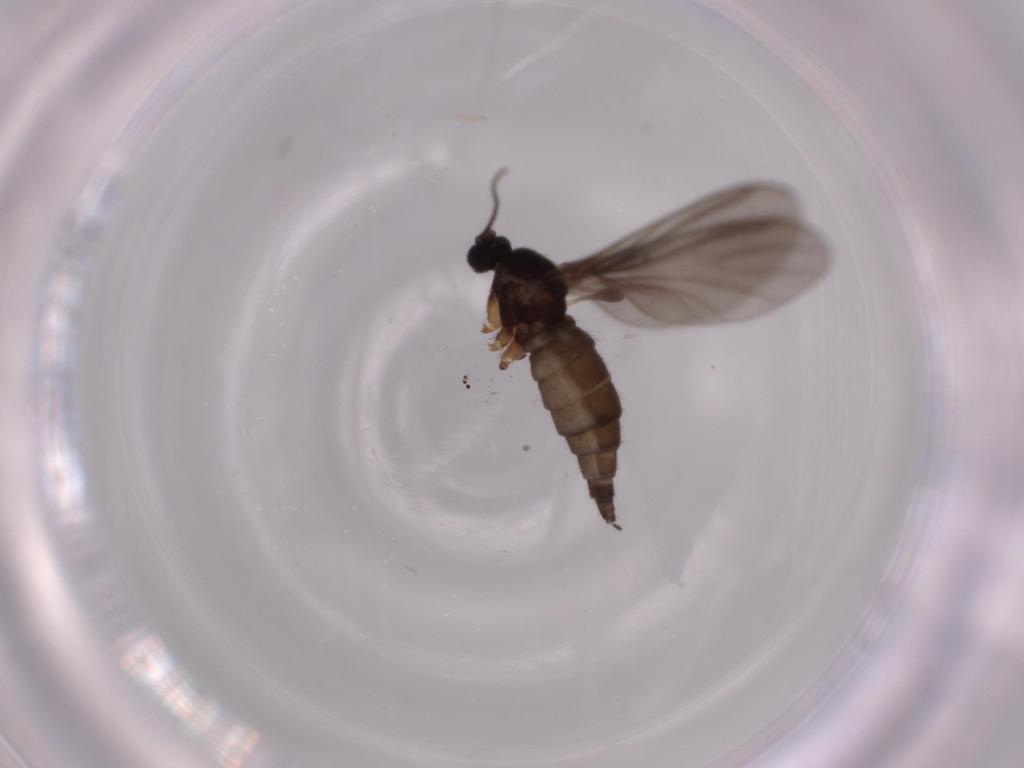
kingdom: Animalia
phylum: Arthropoda
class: Insecta
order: Diptera
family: Sciaridae
